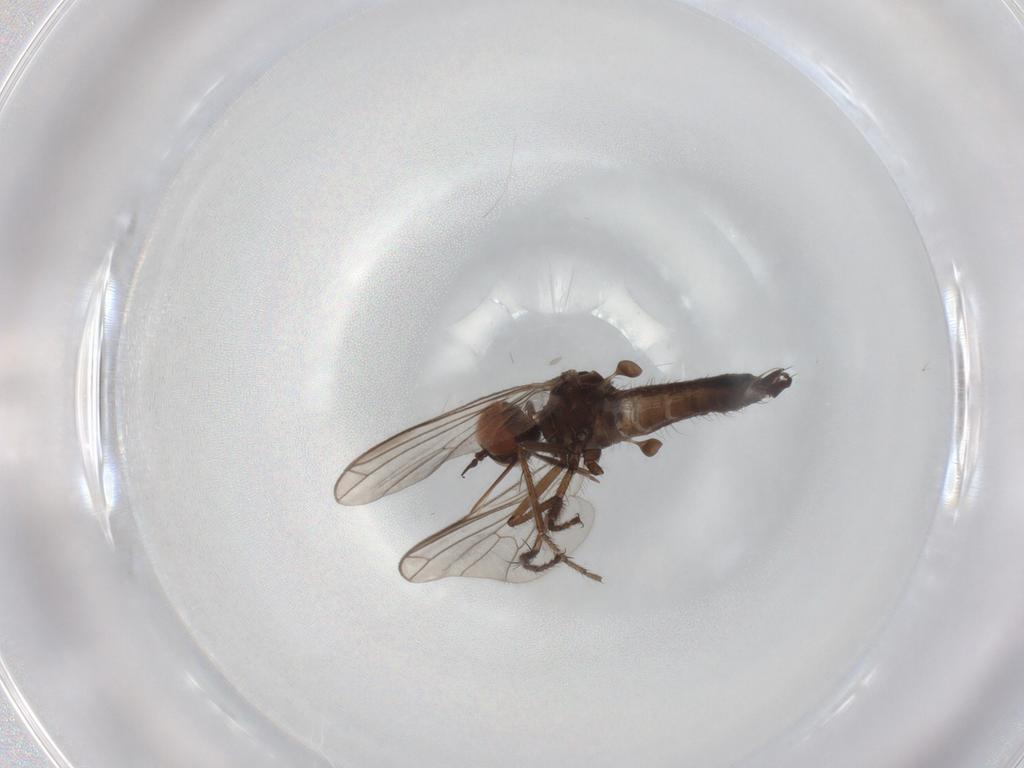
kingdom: Animalia
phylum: Arthropoda
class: Insecta
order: Diptera
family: Empididae
